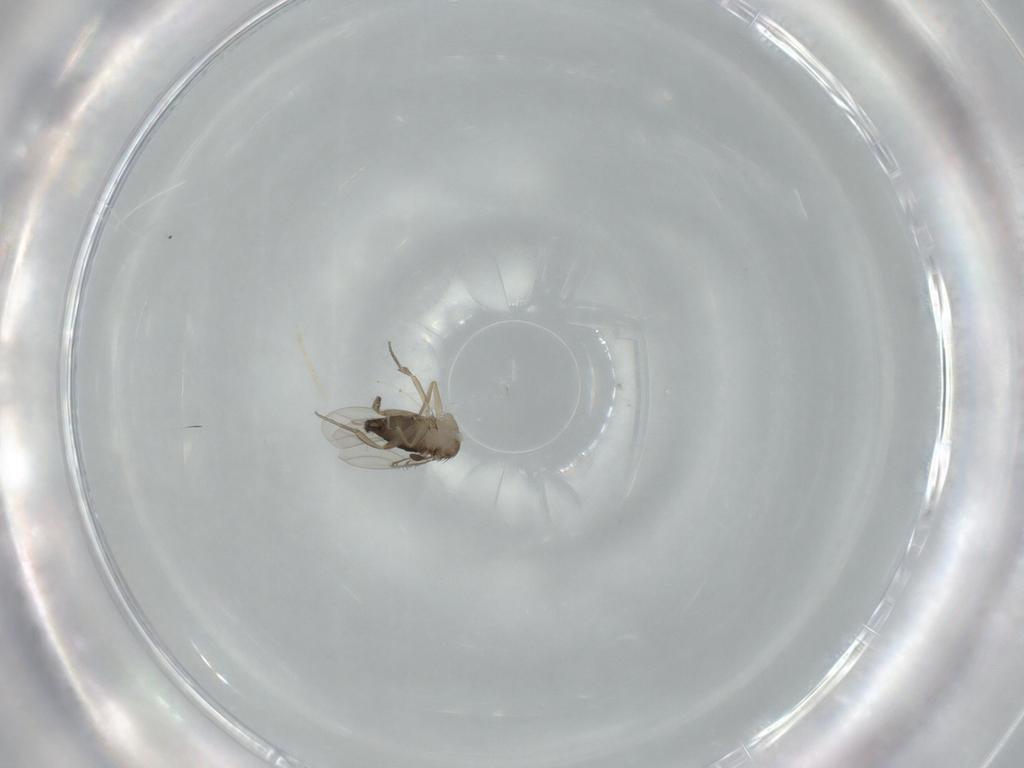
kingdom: Animalia
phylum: Arthropoda
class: Insecta
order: Diptera
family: Phoridae
